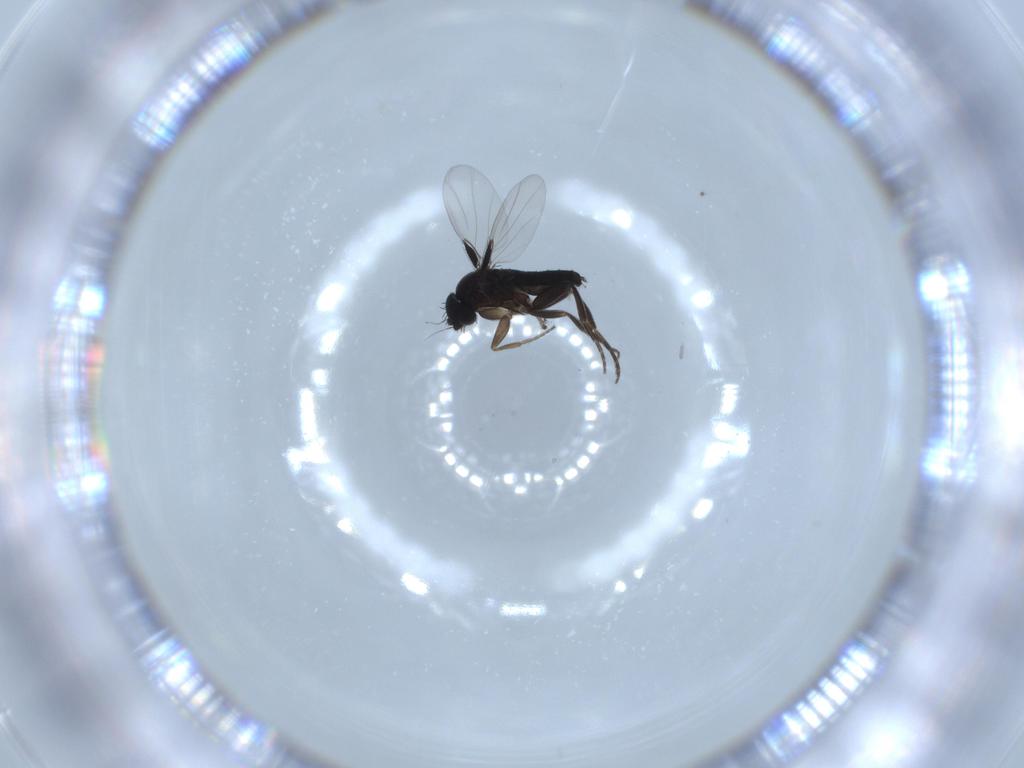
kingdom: Animalia
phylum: Arthropoda
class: Insecta
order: Diptera
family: Phoridae
